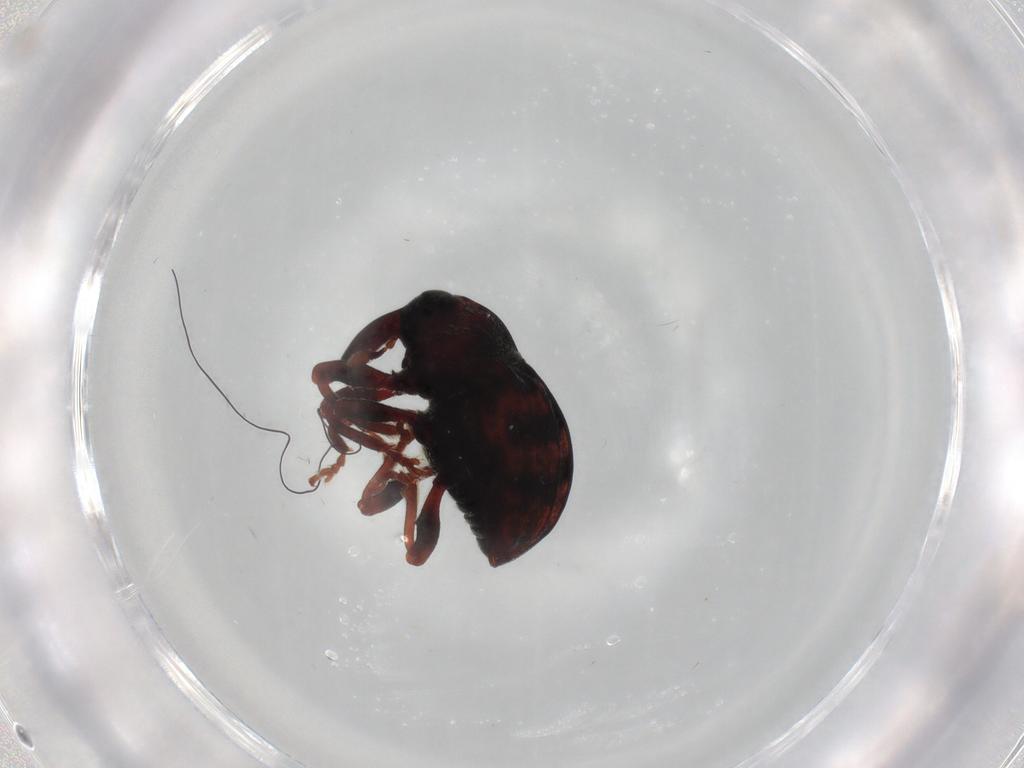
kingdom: Animalia
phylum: Arthropoda
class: Insecta
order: Coleoptera
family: Curculionidae
